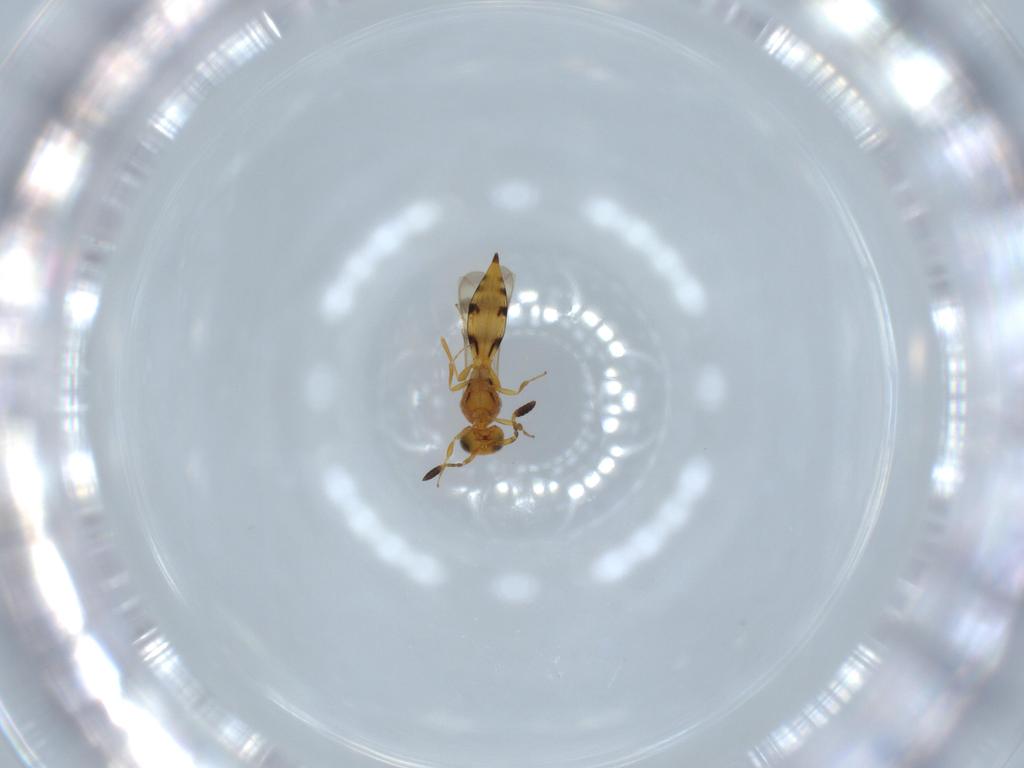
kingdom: Animalia
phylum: Arthropoda
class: Insecta
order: Hymenoptera
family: Scelionidae
